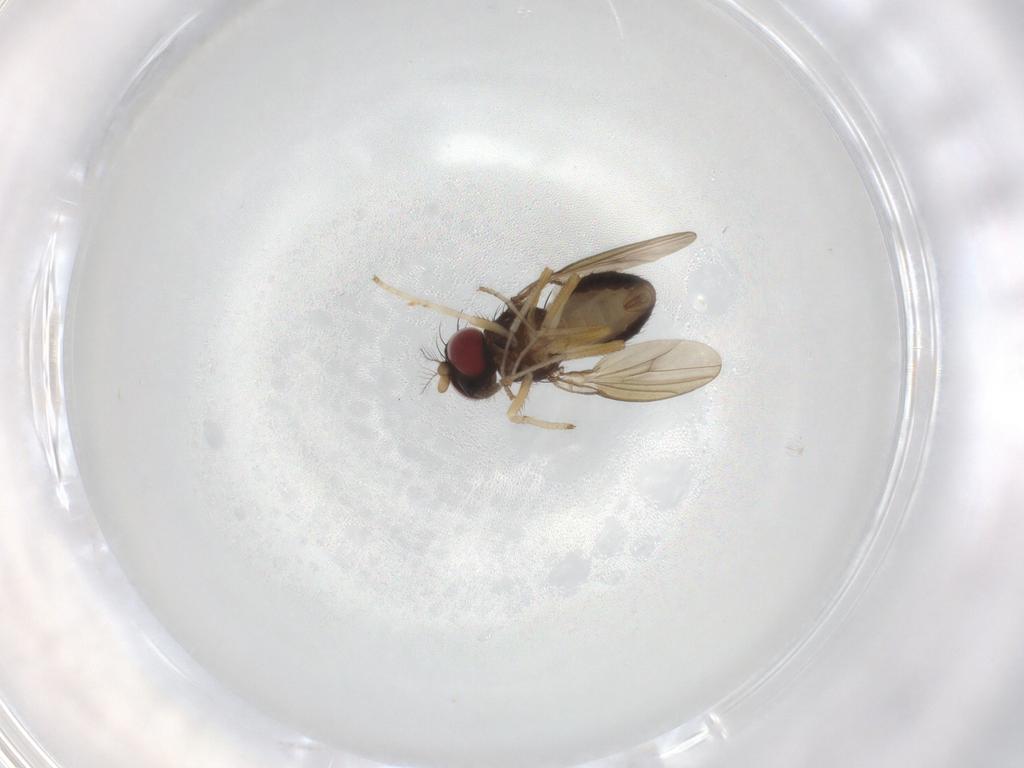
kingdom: Animalia
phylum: Arthropoda
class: Insecta
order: Diptera
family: Lauxaniidae
